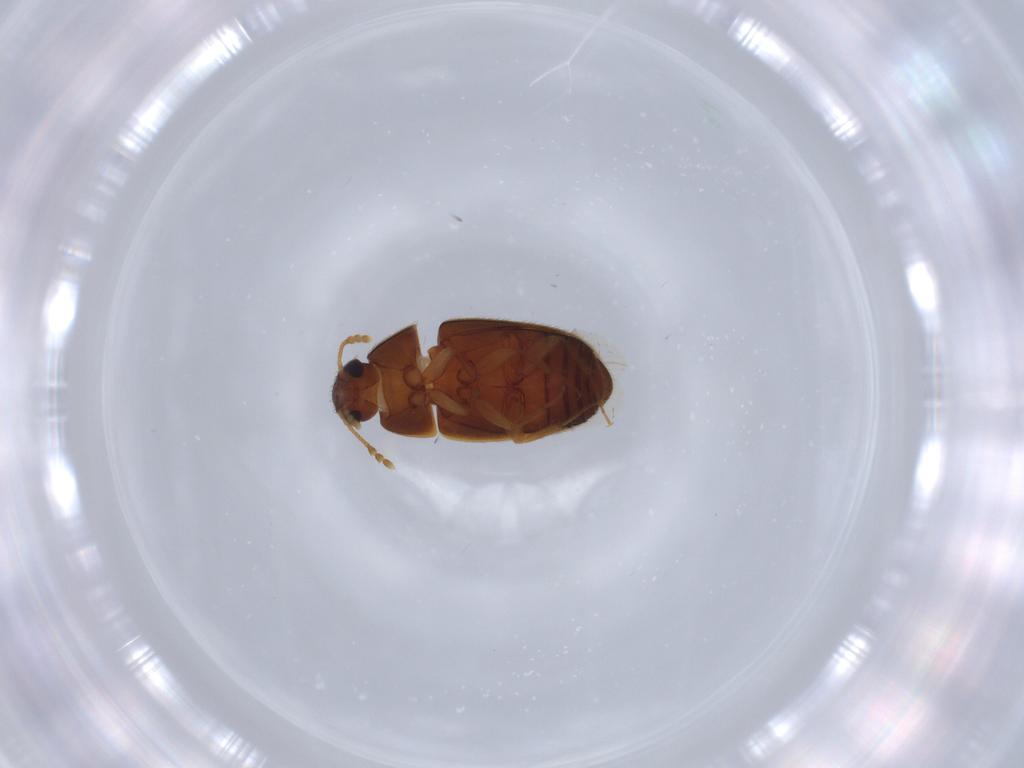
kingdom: Animalia
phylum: Arthropoda
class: Insecta
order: Coleoptera
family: Mycetophagidae
